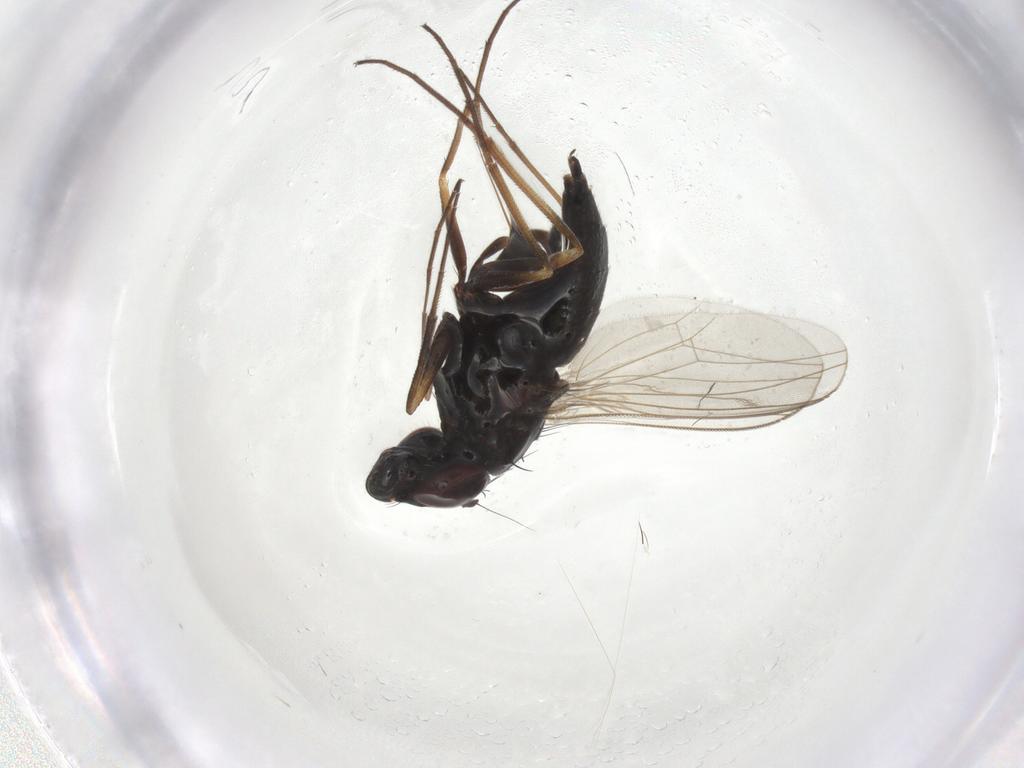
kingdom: Animalia
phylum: Arthropoda
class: Insecta
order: Diptera
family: Dolichopodidae
